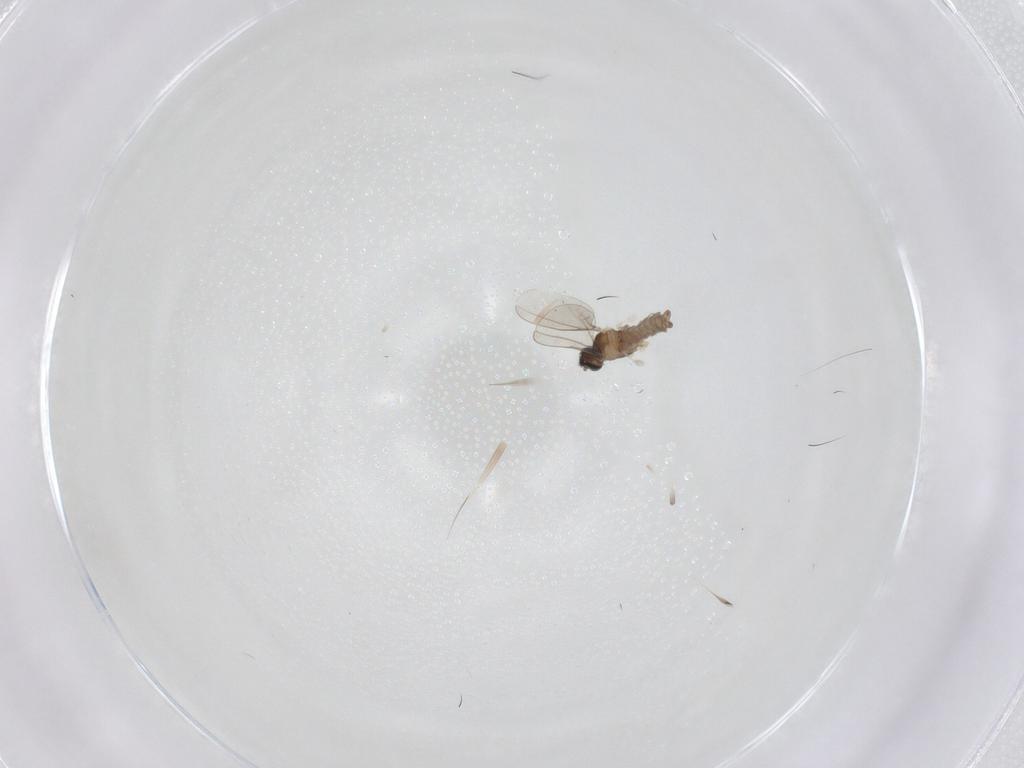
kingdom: Animalia
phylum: Arthropoda
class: Insecta
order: Diptera
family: Cecidomyiidae
